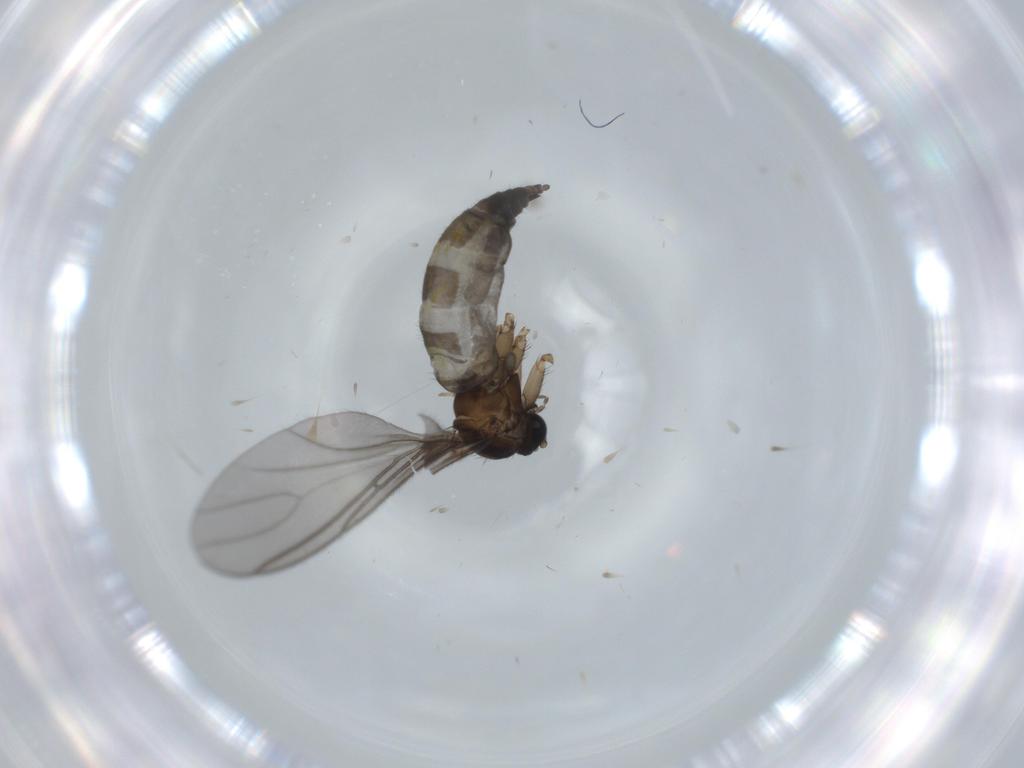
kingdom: Animalia
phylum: Arthropoda
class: Insecta
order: Diptera
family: Sciaridae
